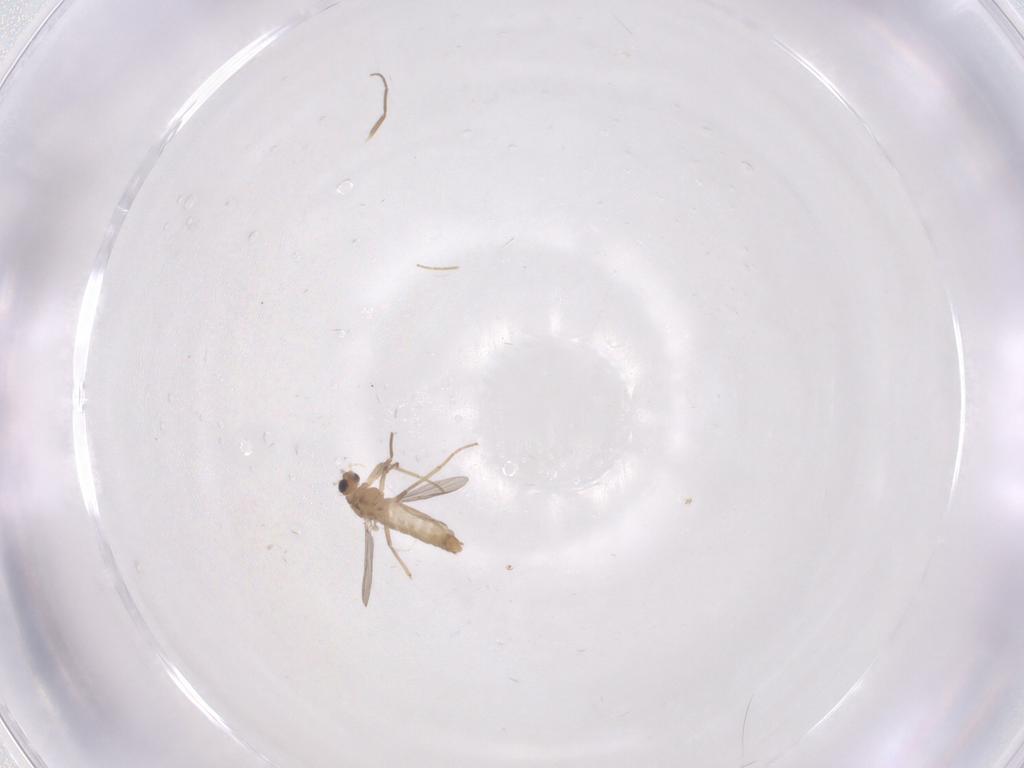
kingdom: Animalia
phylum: Arthropoda
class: Insecta
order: Diptera
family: Chironomidae
